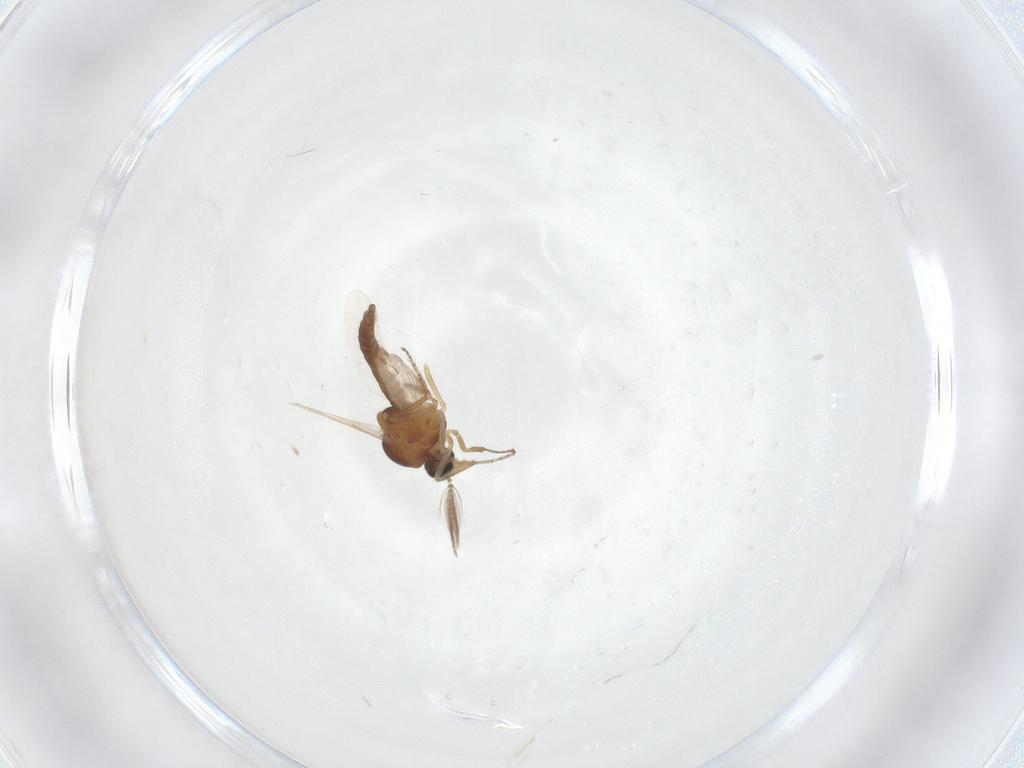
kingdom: Animalia
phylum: Arthropoda
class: Insecta
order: Diptera
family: Ceratopogonidae
